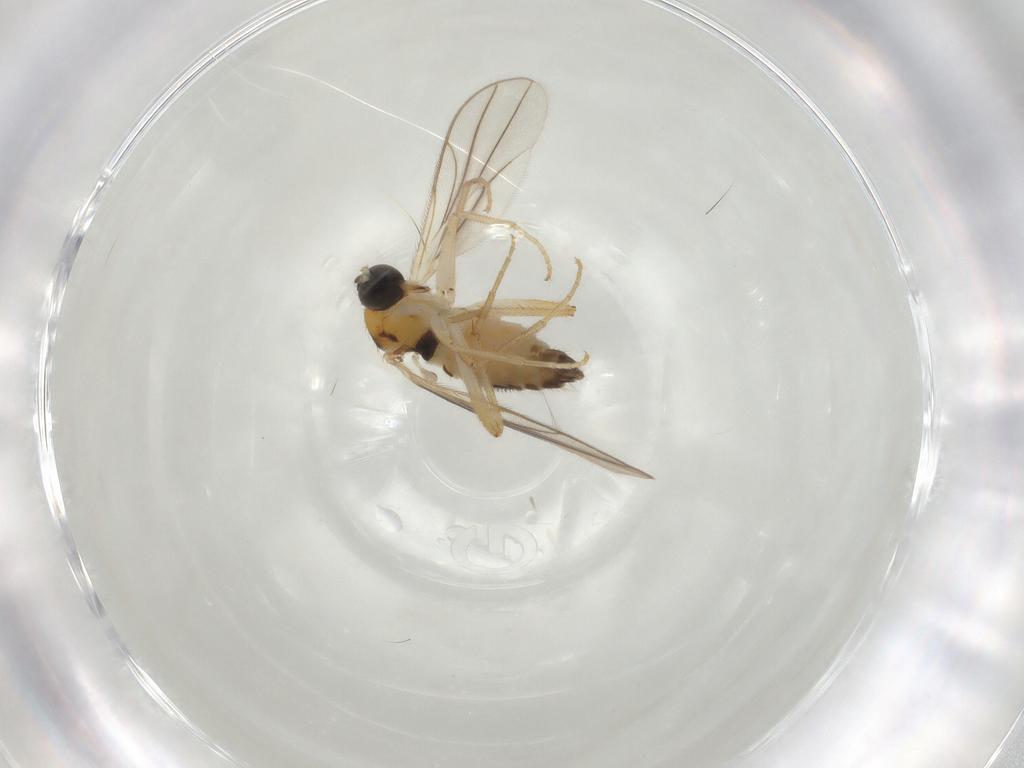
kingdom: Animalia
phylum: Arthropoda
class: Insecta
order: Diptera
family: Hybotidae
